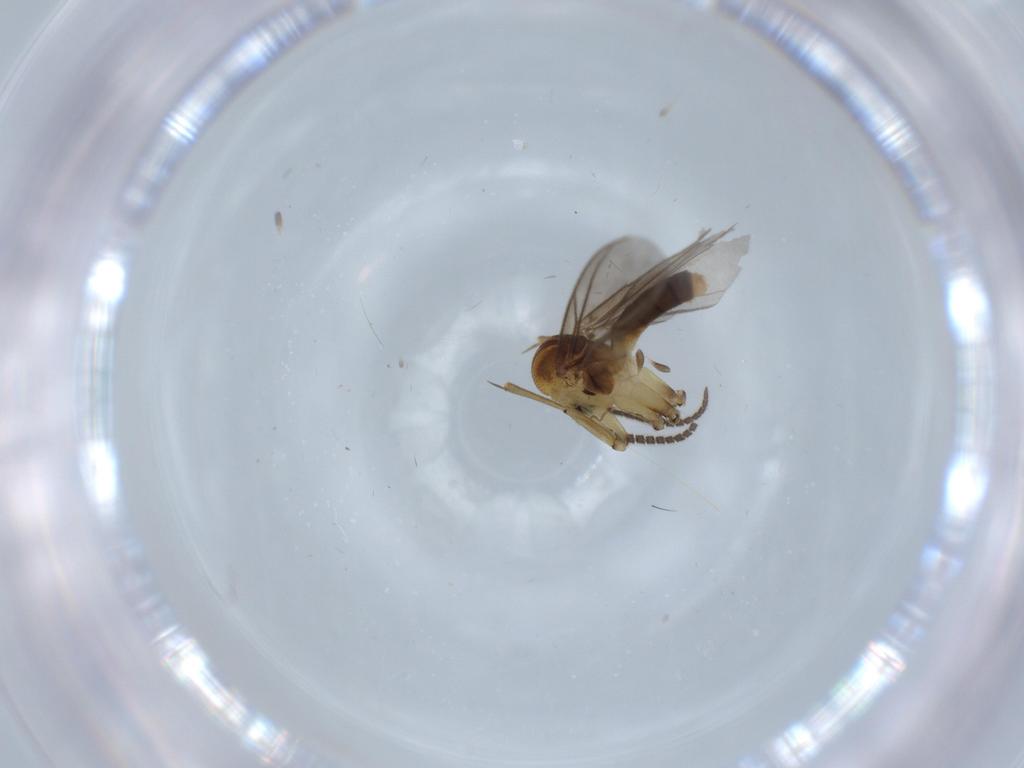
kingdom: Animalia
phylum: Arthropoda
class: Insecta
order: Diptera
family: Mycetophilidae
